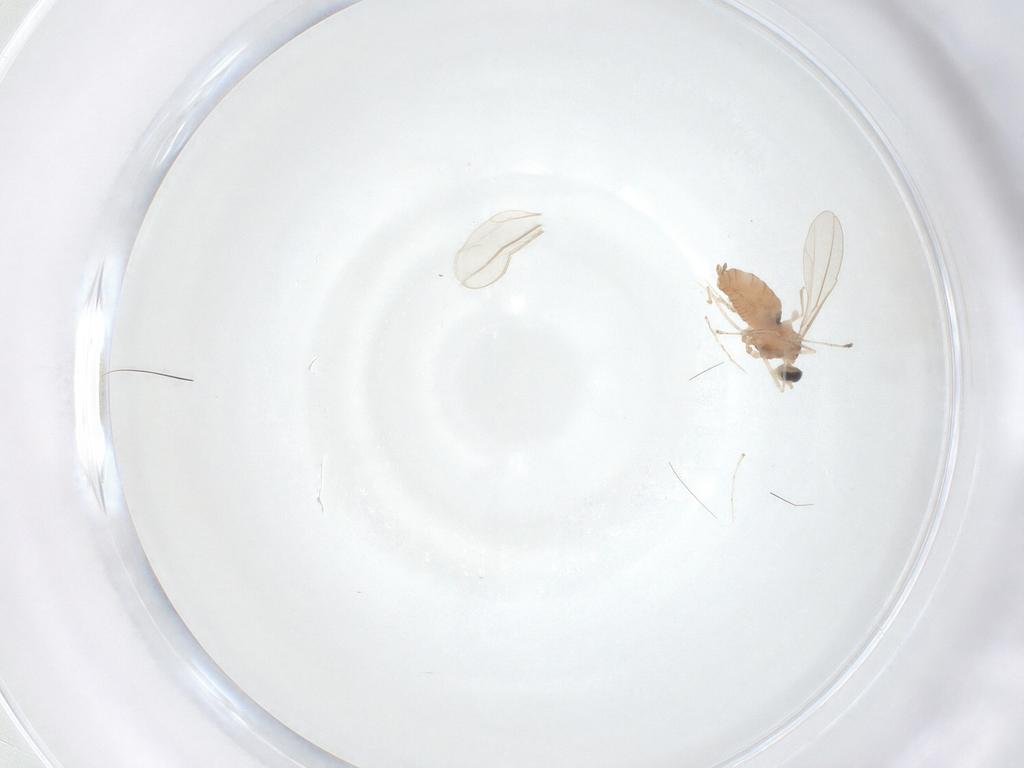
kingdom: Animalia
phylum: Arthropoda
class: Insecta
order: Diptera
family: Cecidomyiidae
